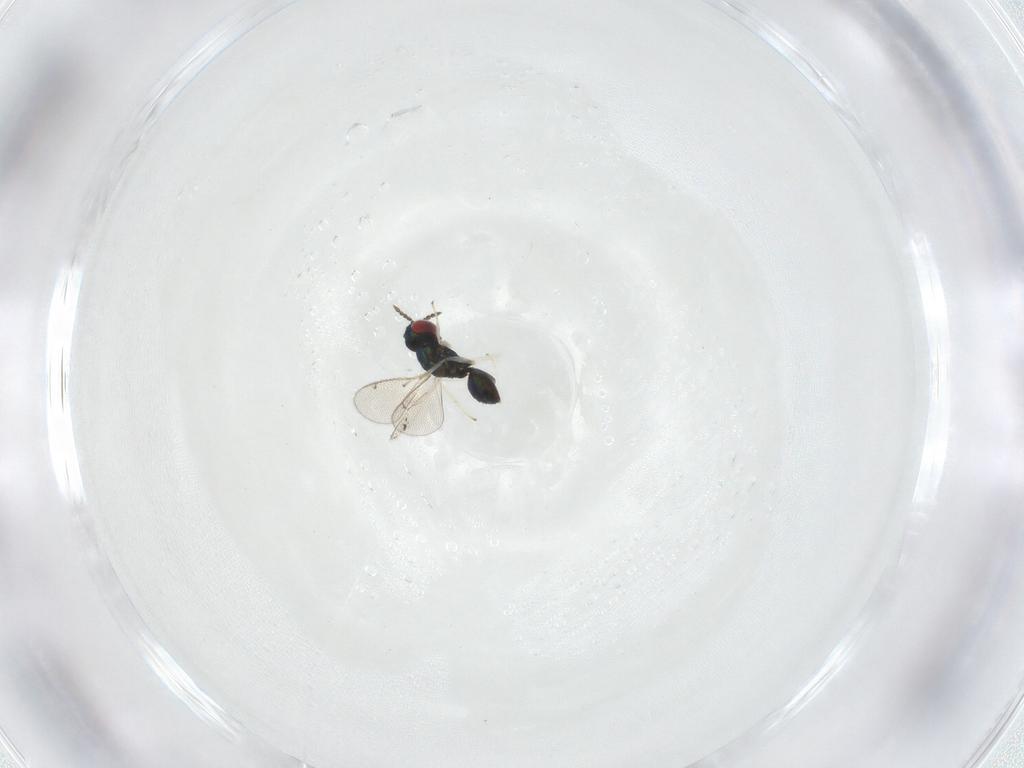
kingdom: Animalia
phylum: Arthropoda
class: Insecta
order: Hymenoptera
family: Eulophidae
